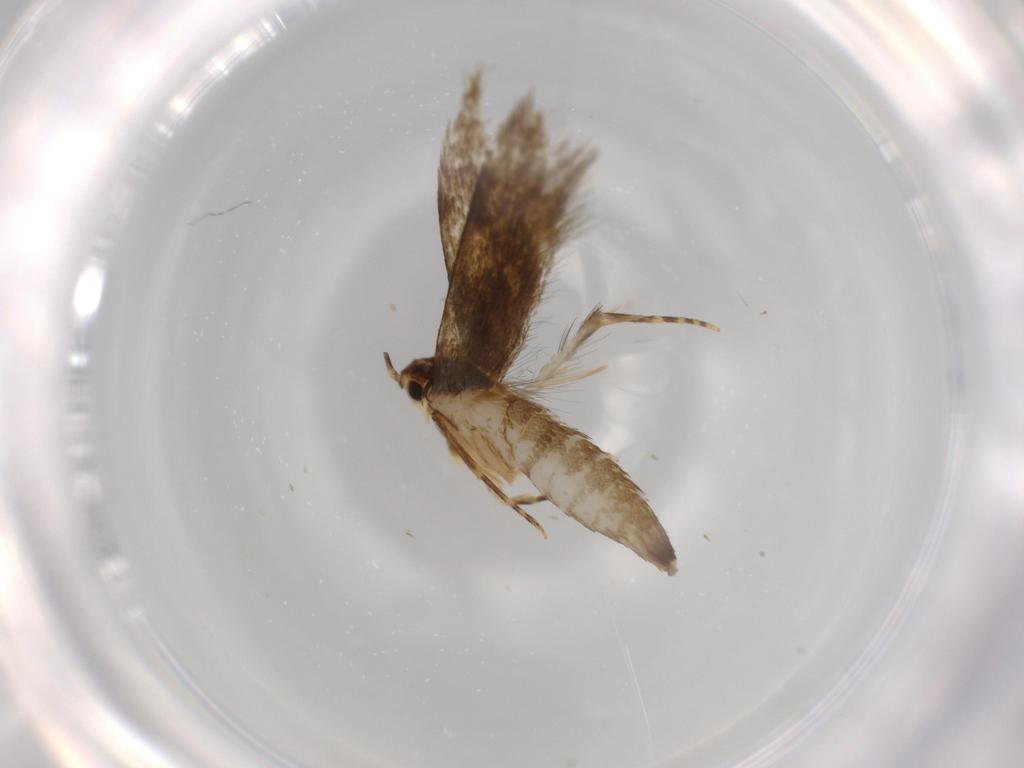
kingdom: Animalia
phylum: Arthropoda
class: Insecta
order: Lepidoptera
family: Tineidae
